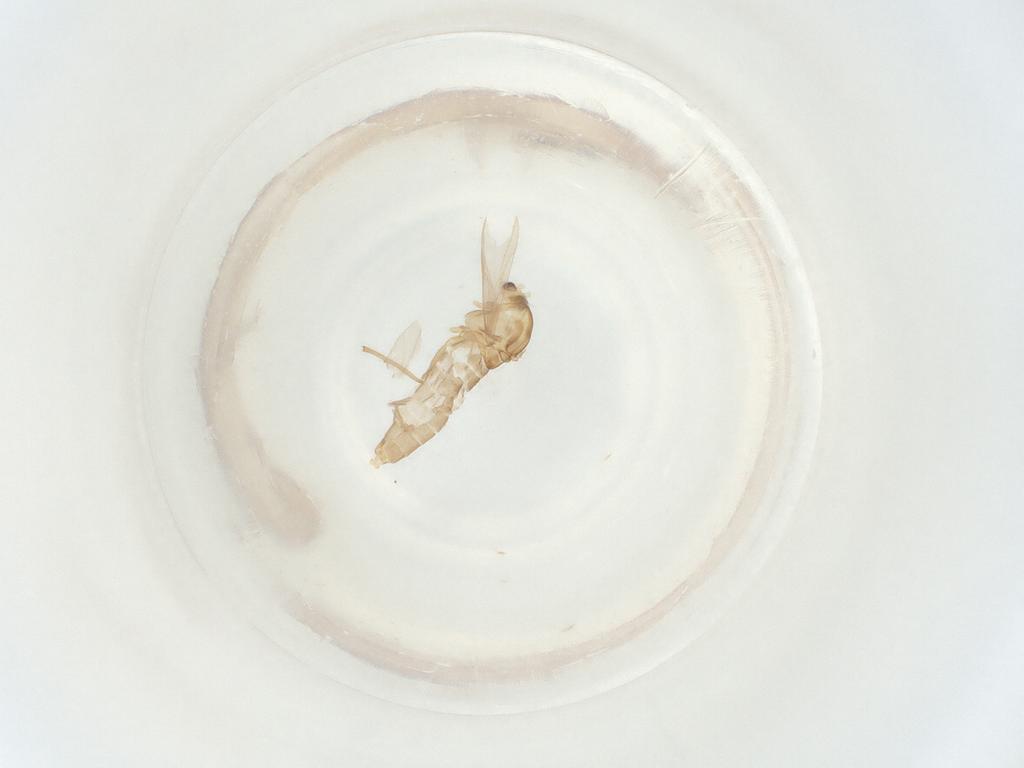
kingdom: Animalia
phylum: Arthropoda
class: Insecta
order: Diptera
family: Chironomidae
